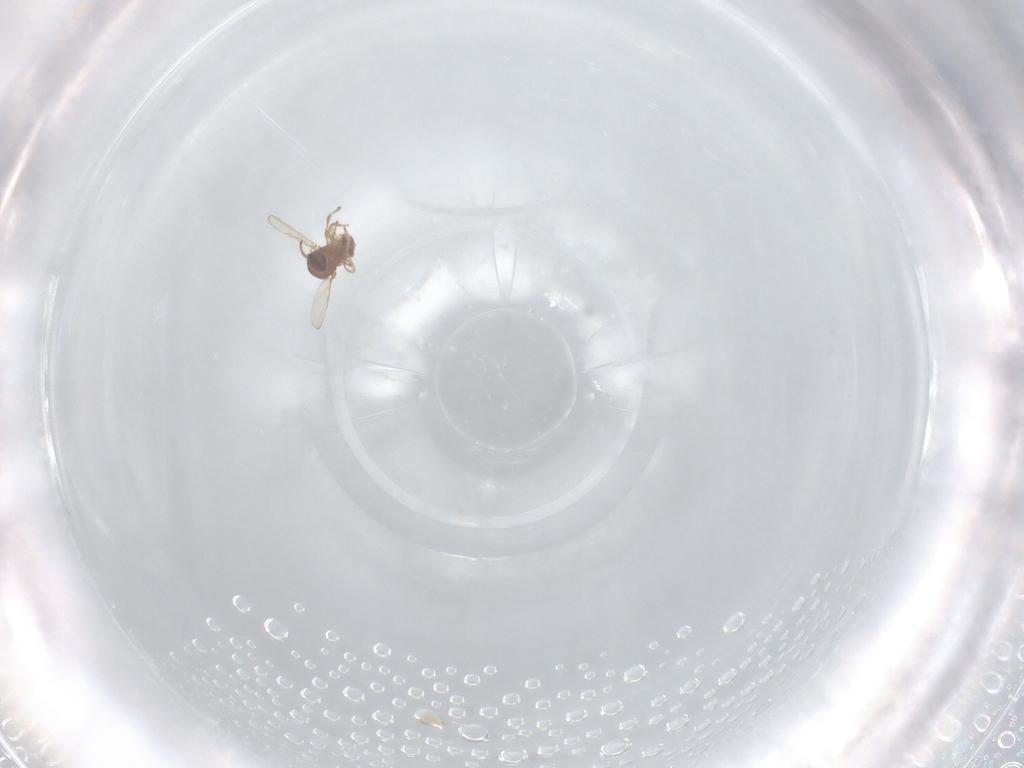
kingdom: Animalia
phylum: Arthropoda
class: Insecta
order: Diptera
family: Ceratopogonidae
